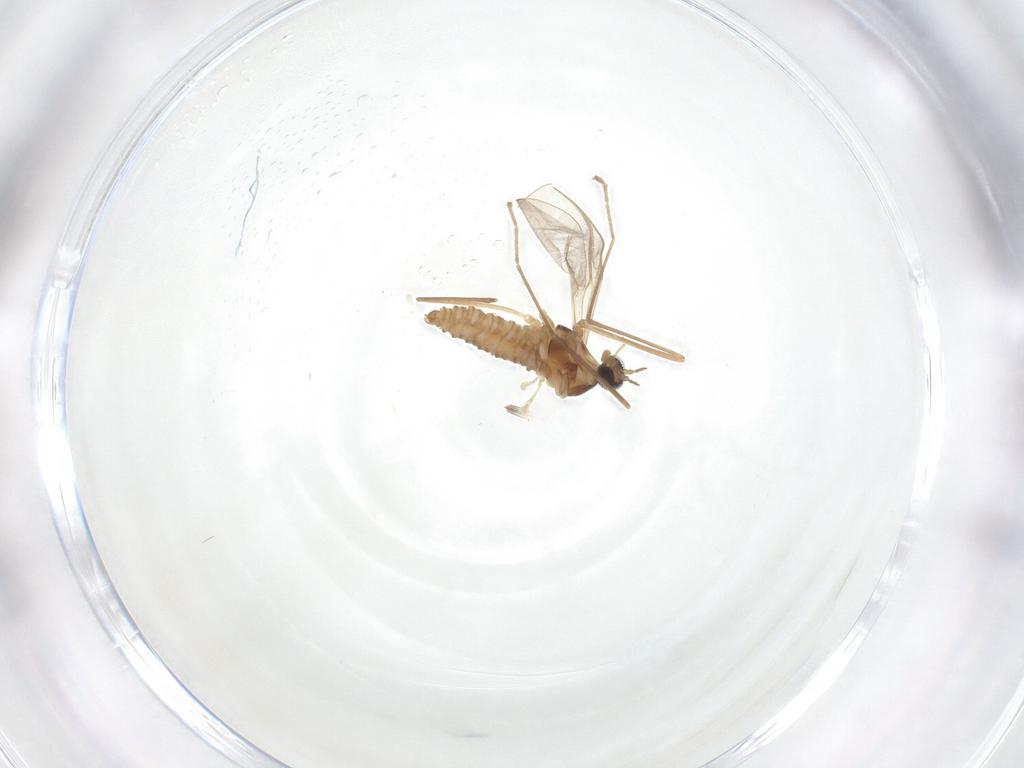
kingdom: Animalia
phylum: Arthropoda
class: Insecta
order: Diptera
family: Cecidomyiidae
